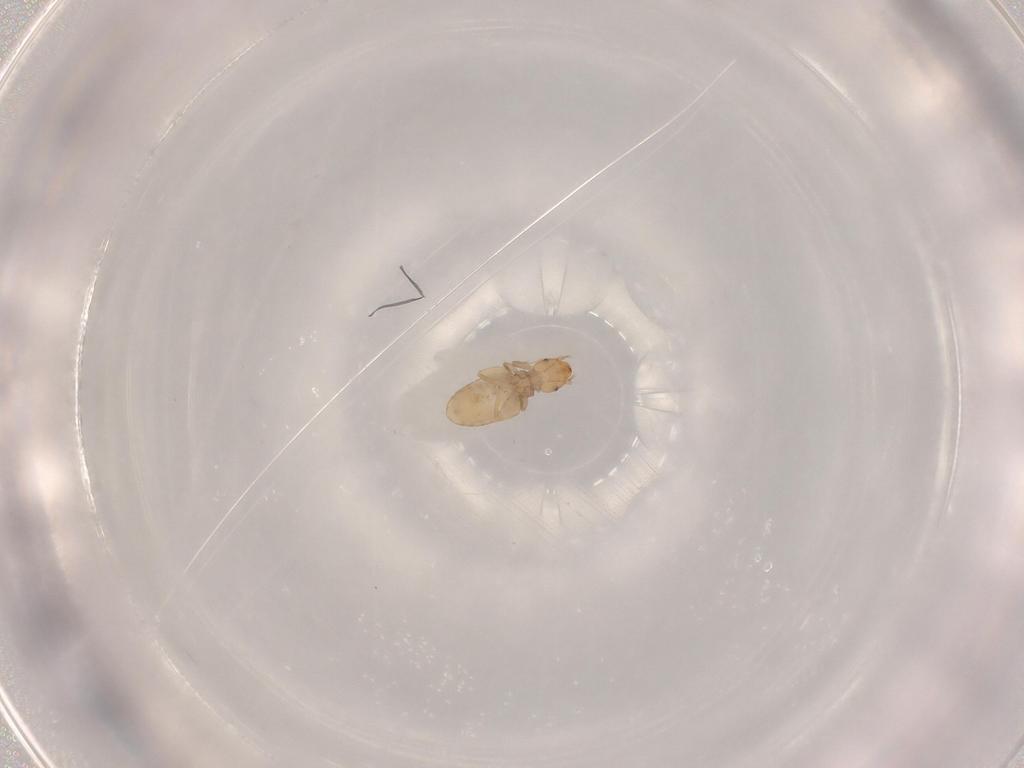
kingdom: Animalia
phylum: Arthropoda
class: Insecta
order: Psocodea
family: Liposcelididae
